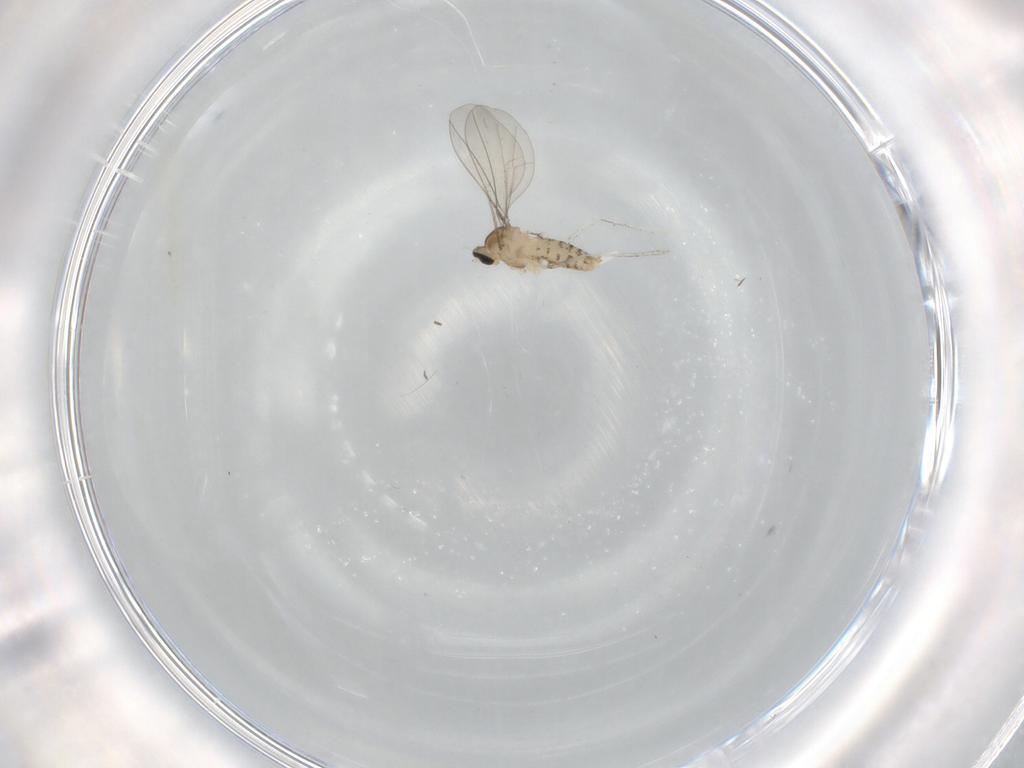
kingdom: Animalia
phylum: Arthropoda
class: Insecta
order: Diptera
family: Cecidomyiidae
